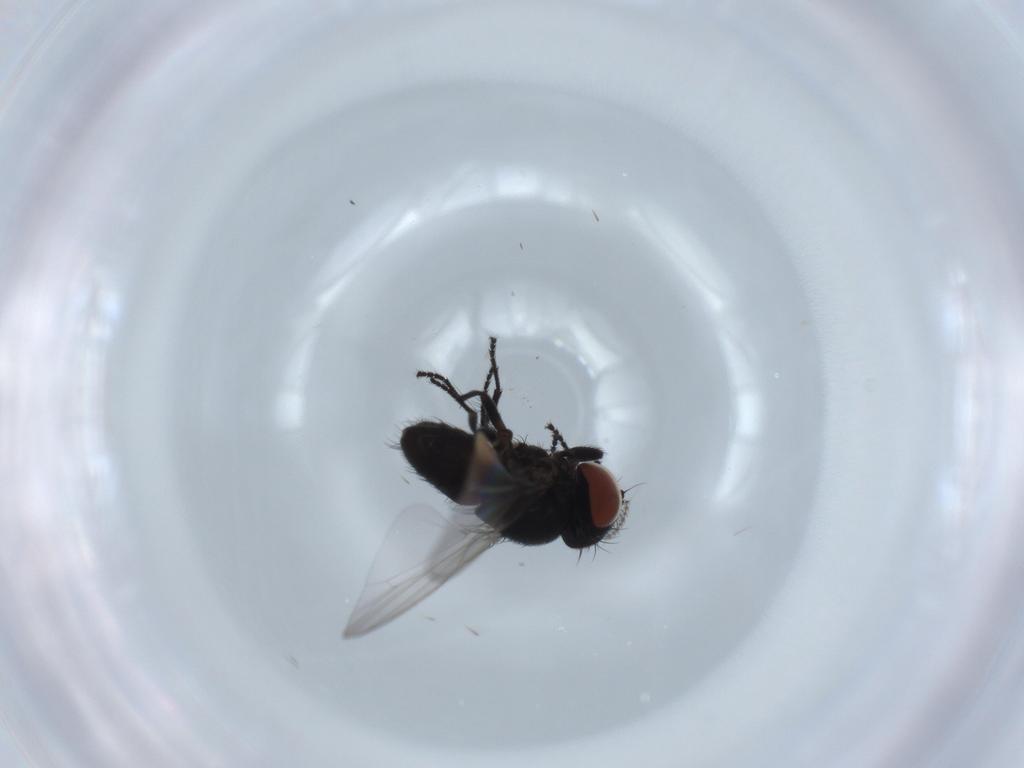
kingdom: Animalia
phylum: Arthropoda
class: Insecta
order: Diptera
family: Milichiidae
